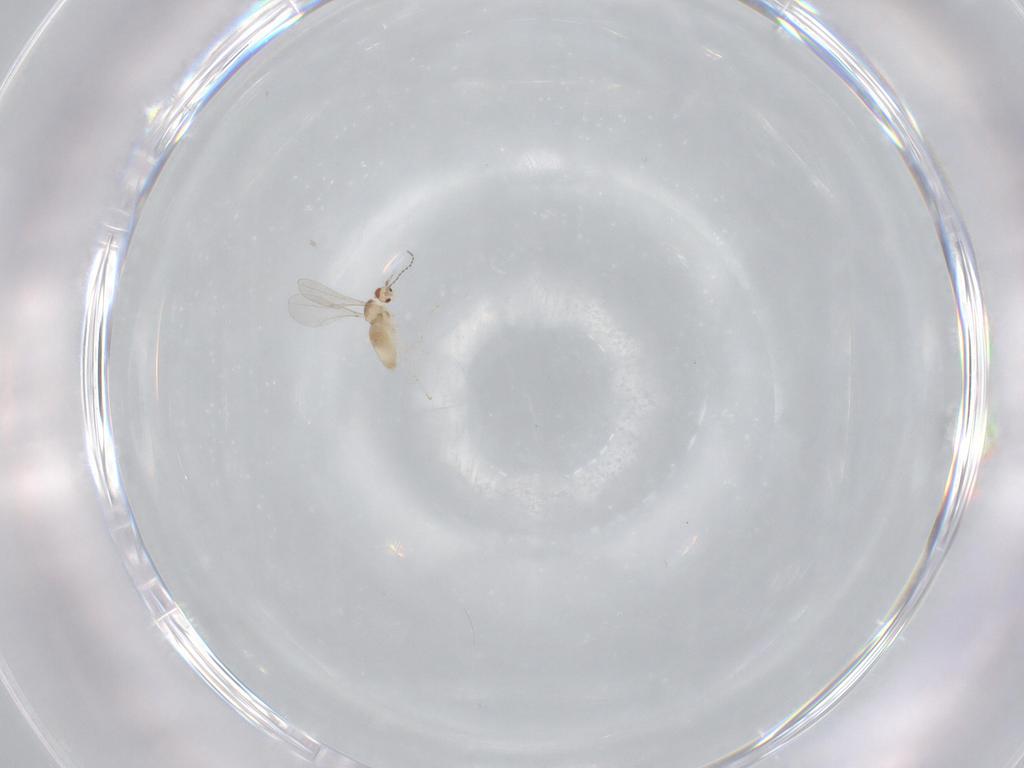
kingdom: Animalia
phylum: Arthropoda
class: Insecta
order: Diptera
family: Cecidomyiidae
